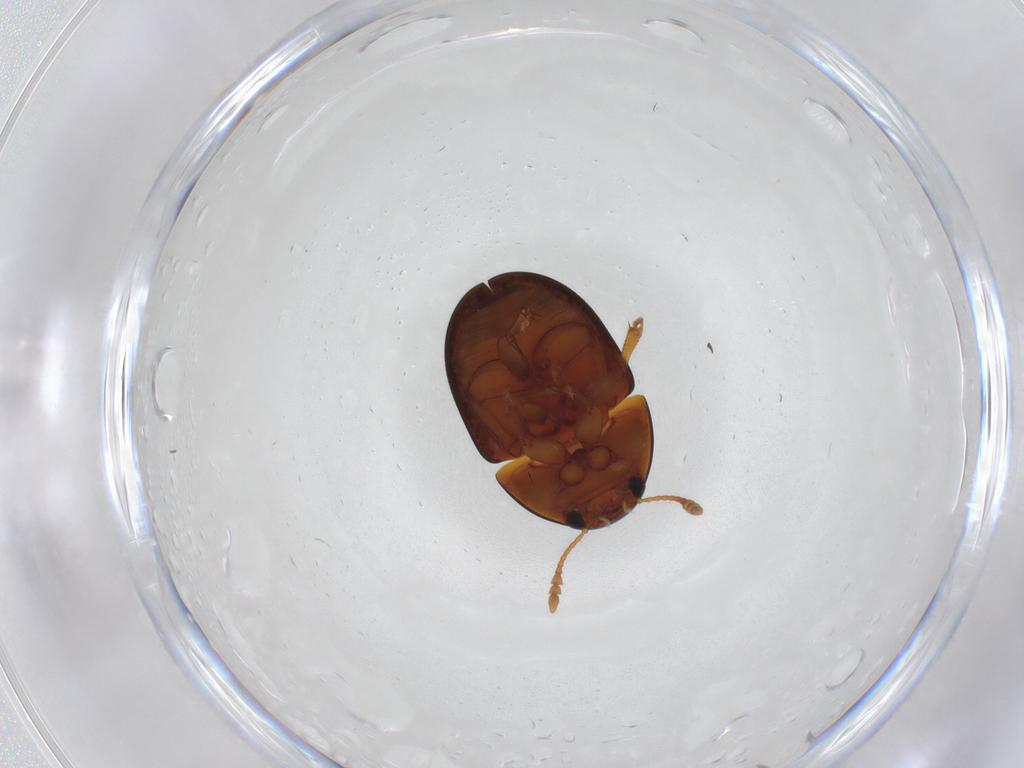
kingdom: Animalia
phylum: Arthropoda
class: Insecta
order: Coleoptera
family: Phalacridae
